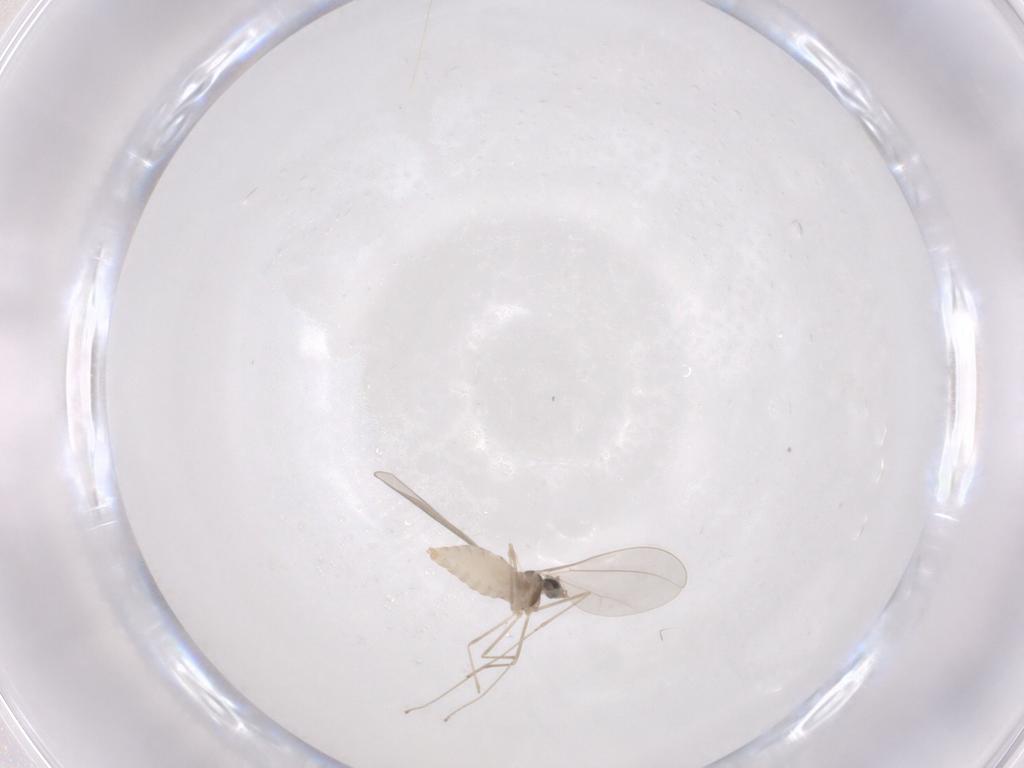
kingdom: Animalia
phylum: Arthropoda
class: Insecta
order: Diptera
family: Cecidomyiidae
